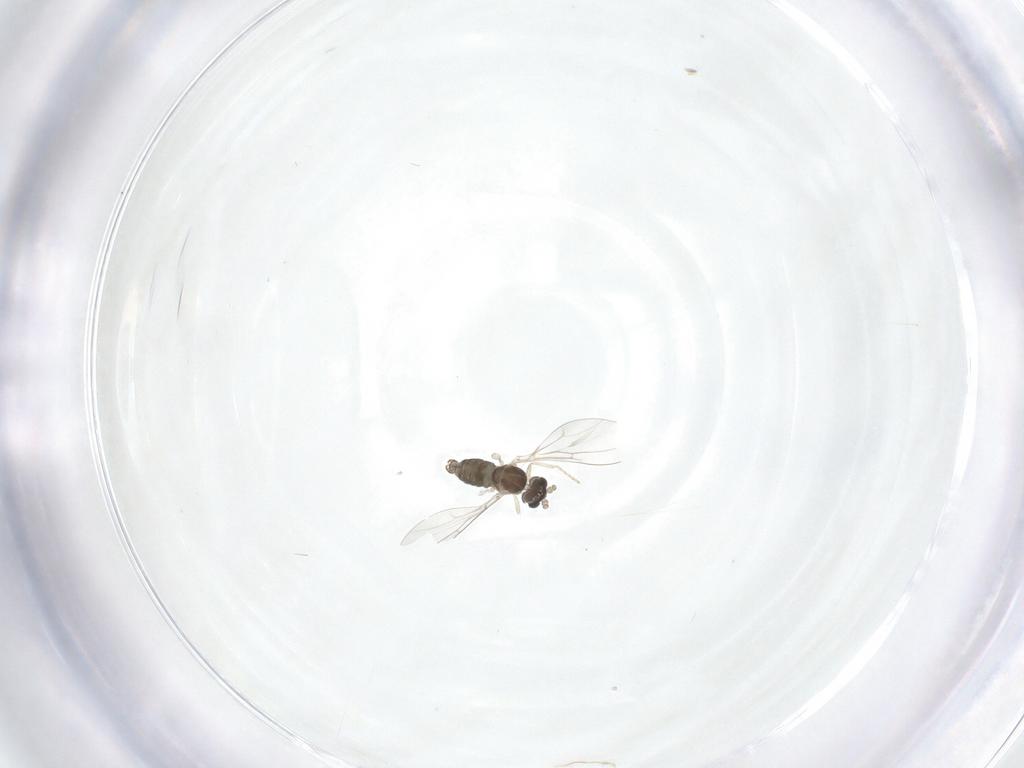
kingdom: Animalia
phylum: Arthropoda
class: Insecta
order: Diptera
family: Cecidomyiidae
